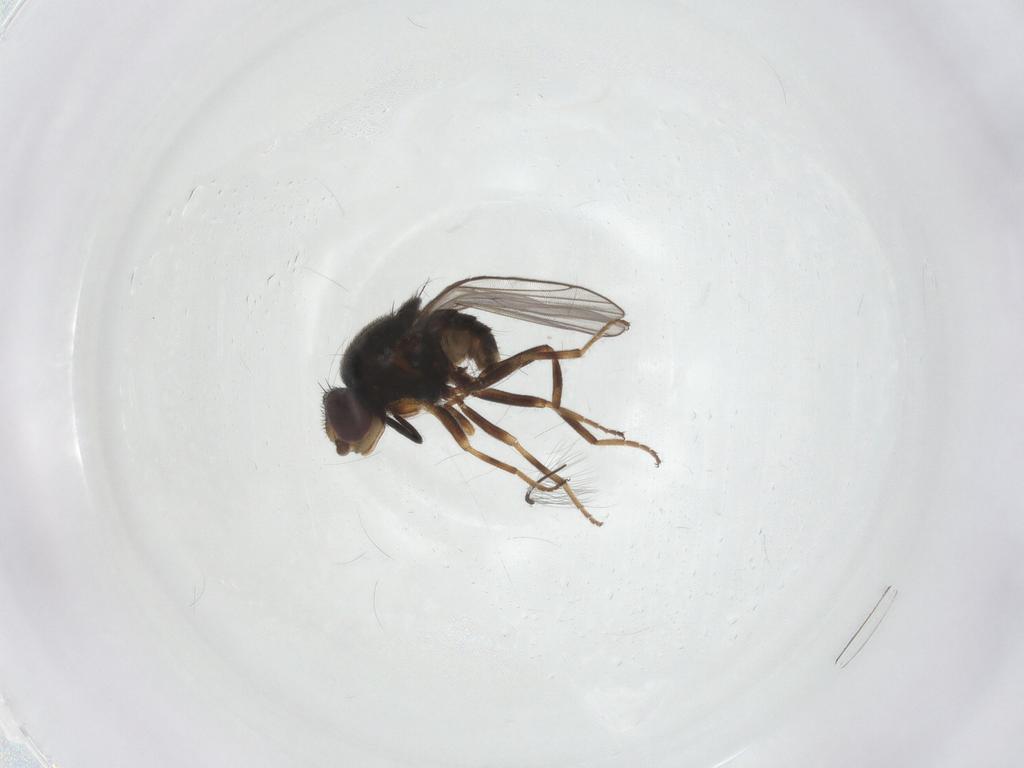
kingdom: Animalia
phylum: Arthropoda
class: Insecta
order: Diptera
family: Chloropidae
